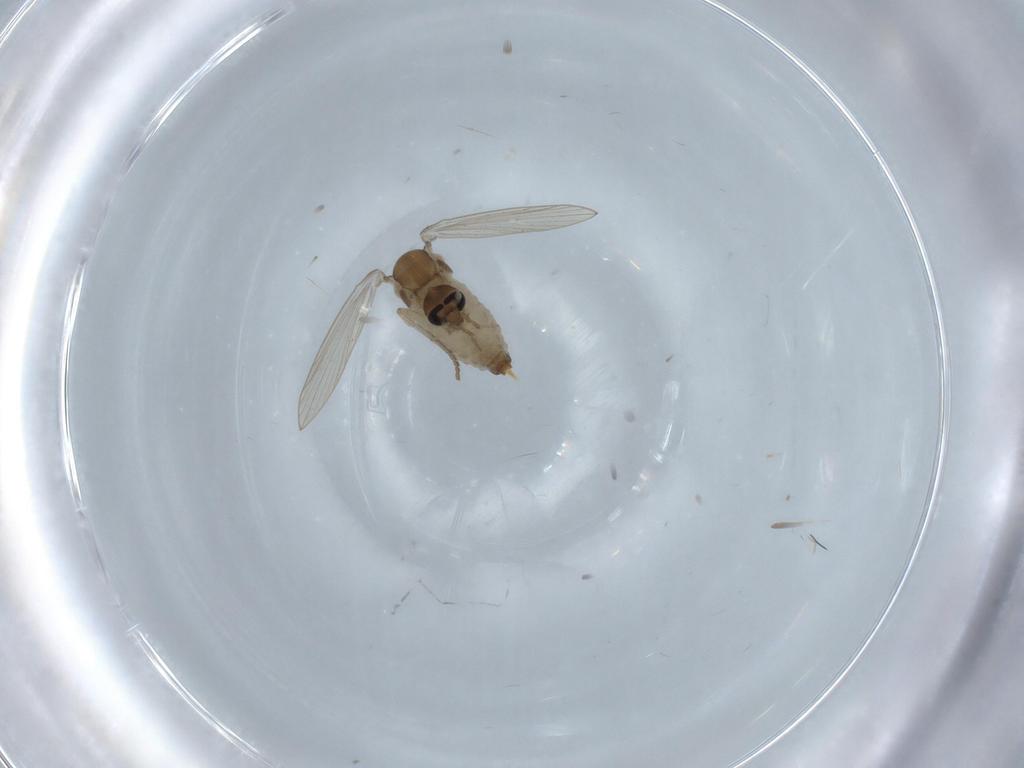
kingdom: Animalia
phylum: Arthropoda
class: Insecta
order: Diptera
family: Psychodidae
